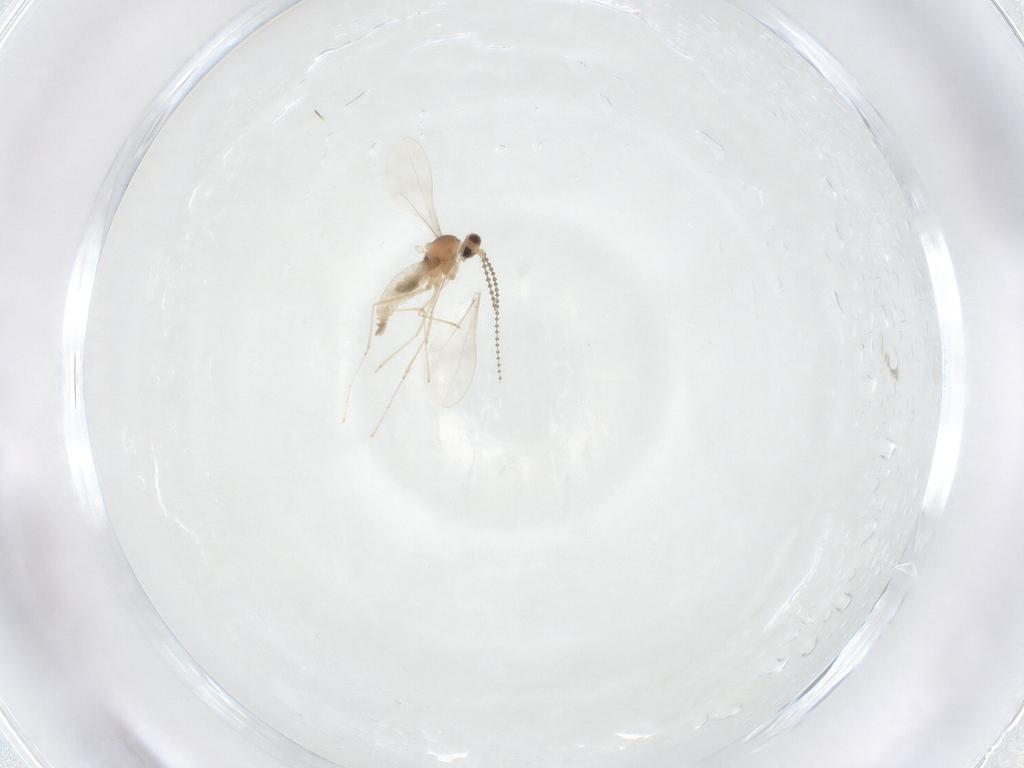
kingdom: Animalia
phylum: Arthropoda
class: Insecta
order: Diptera
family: Cecidomyiidae
